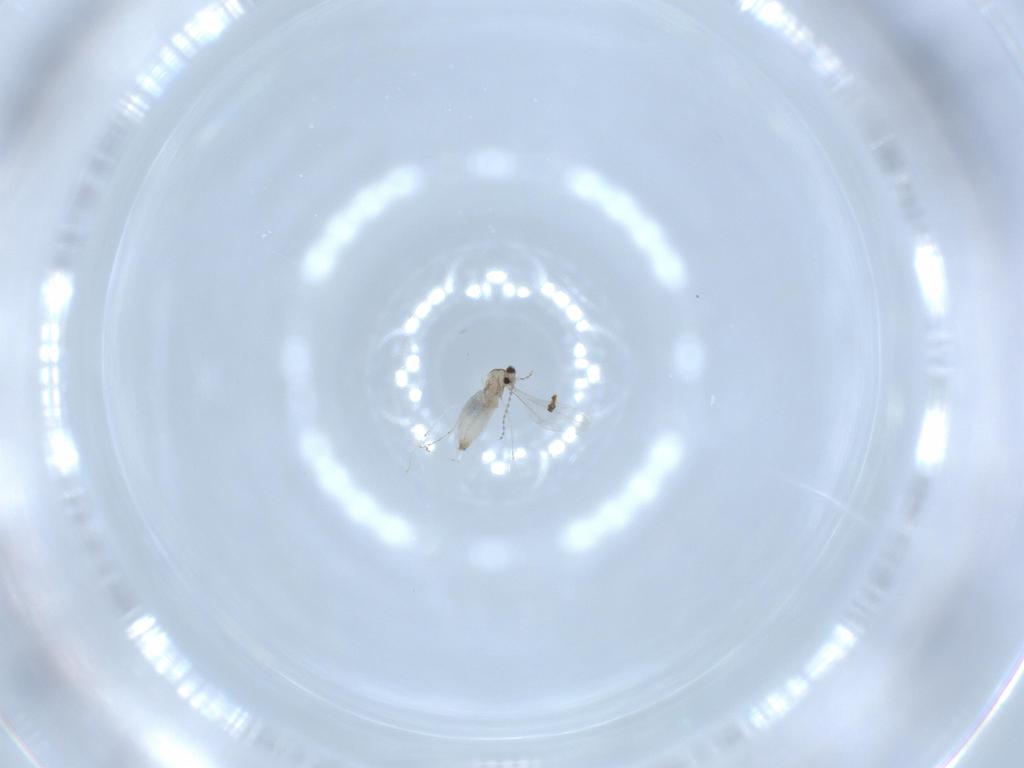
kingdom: Animalia
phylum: Arthropoda
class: Insecta
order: Diptera
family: Cecidomyiidae
